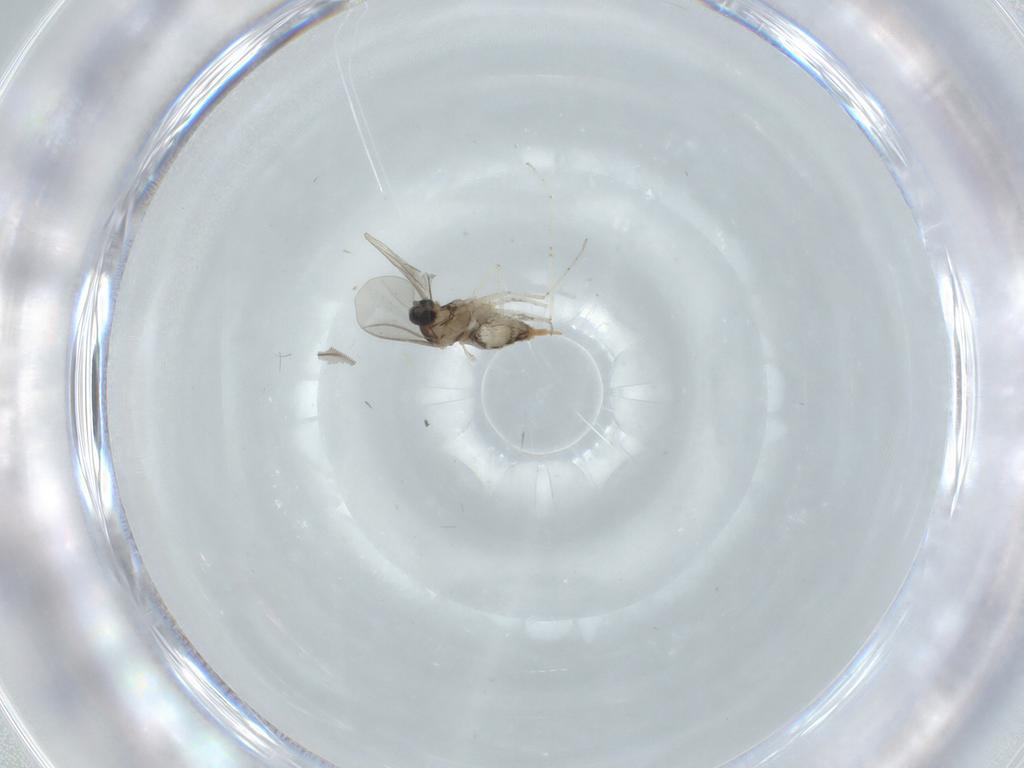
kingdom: Animalia
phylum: Arthropoda
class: Insecta
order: Diptera
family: Cecidomyiidae
